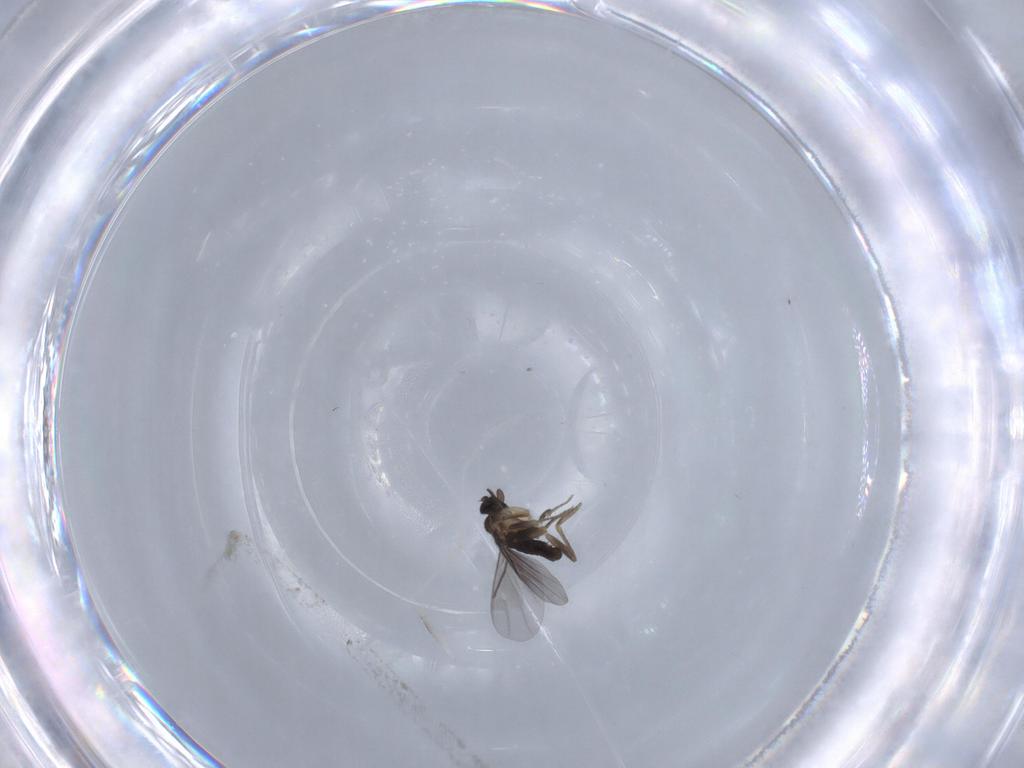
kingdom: Animalia
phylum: Arthropoda
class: Insecta
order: Diptera
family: Cecidomyiidae
